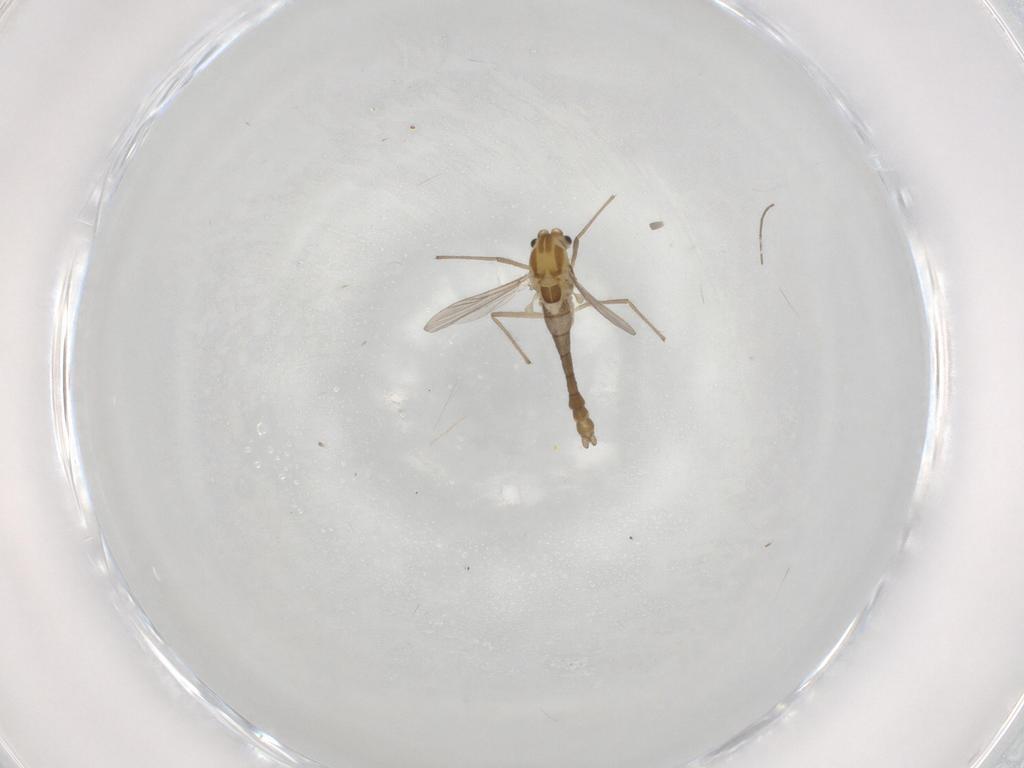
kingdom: Animalia
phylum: Arthropoda
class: Insecta
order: Diptera
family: Chironomidae
